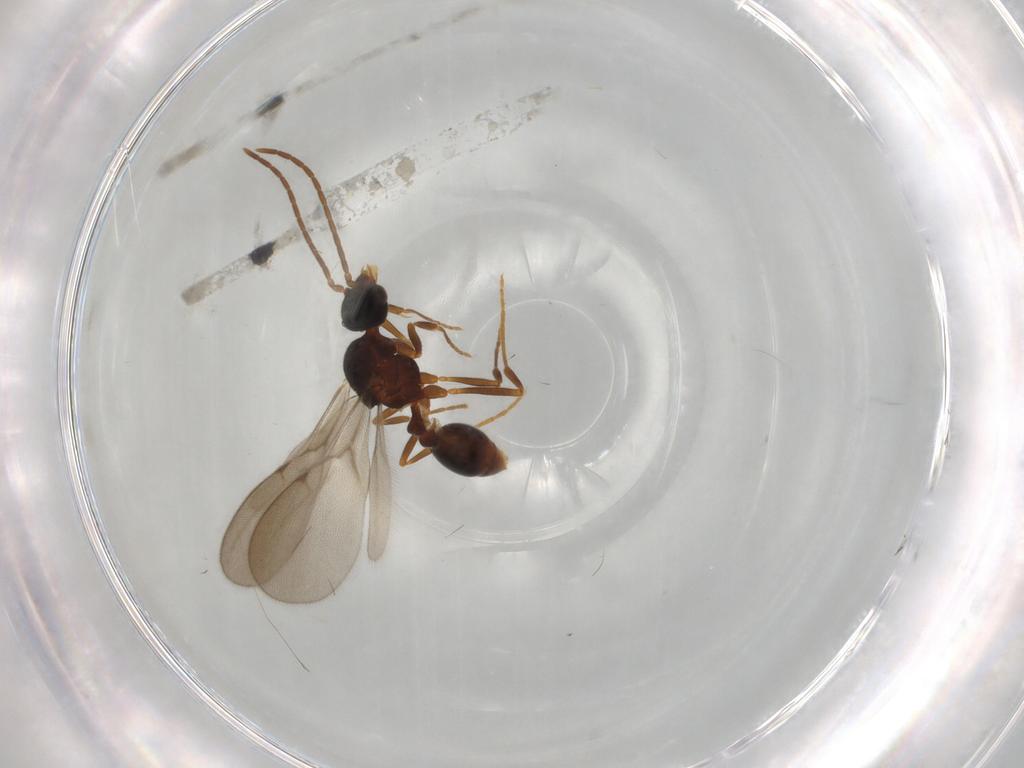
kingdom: Animalia
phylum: Arthropoda
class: Insecta
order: Hymenoptera
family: Formicidae
